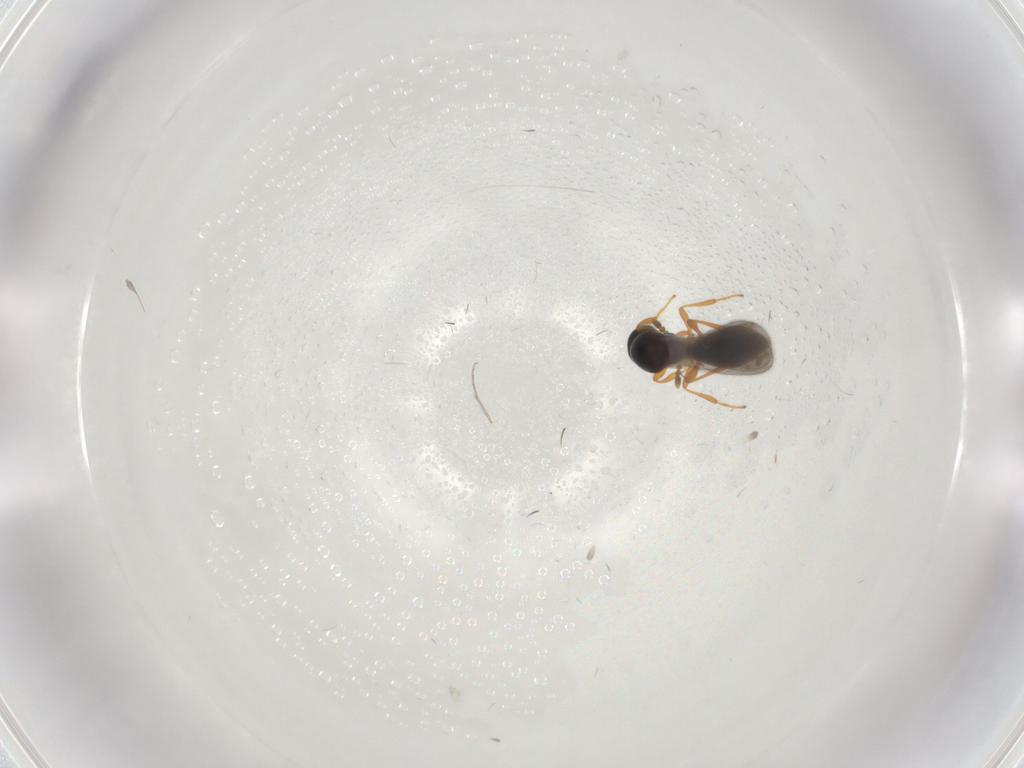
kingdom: Animalia
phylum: Arthropoda
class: Insecta
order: Hymenoptera
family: Platygastridae
